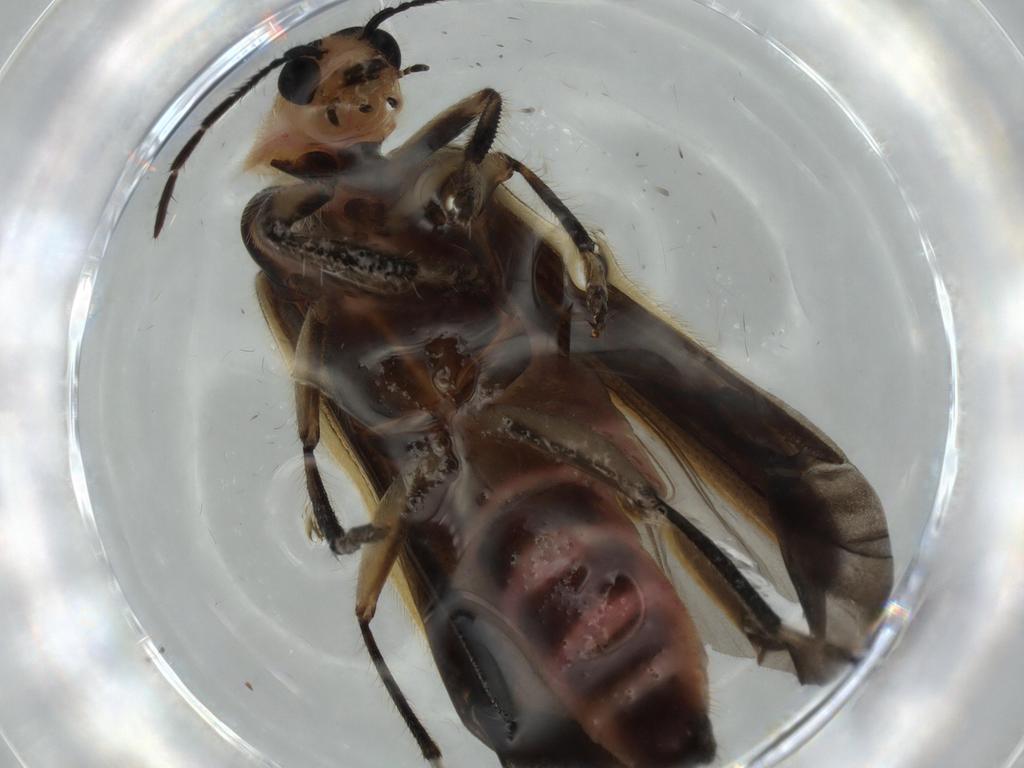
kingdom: Animalia
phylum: Arthropoda
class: Insecta
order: Coleoptera
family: Cleridae
